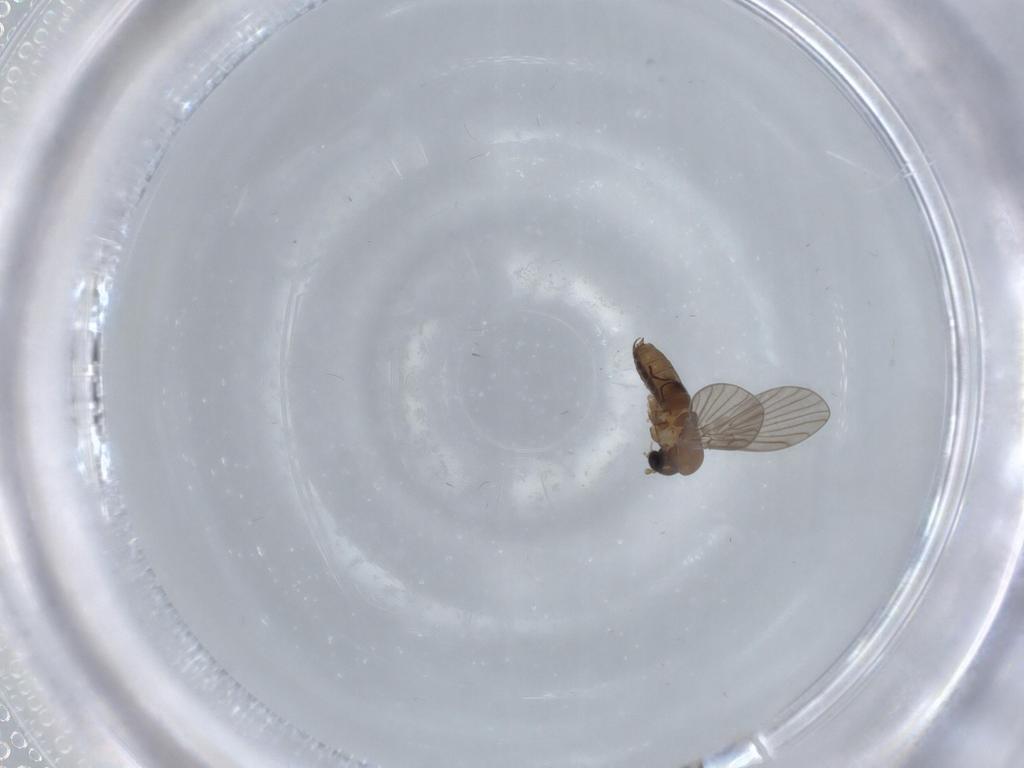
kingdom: Animalia
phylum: Arthropoda
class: Insecta
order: Diptera
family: Psychodidae
